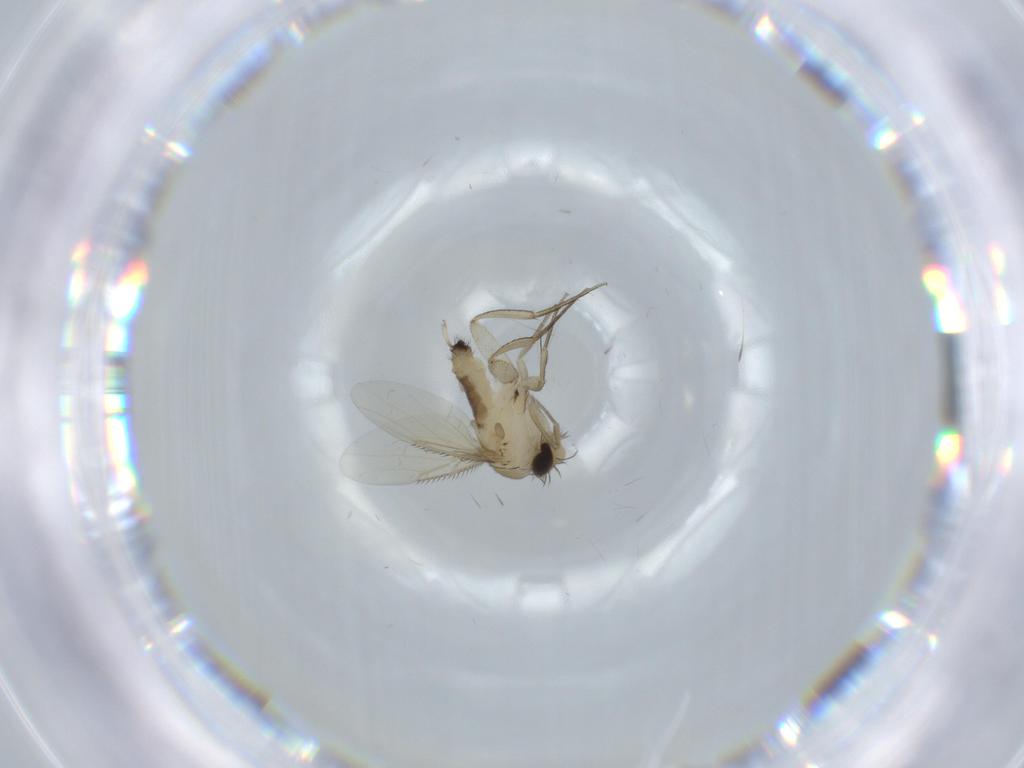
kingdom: Animalia
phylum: Arthropoda
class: Insecta
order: Diptera
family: Phoridae
